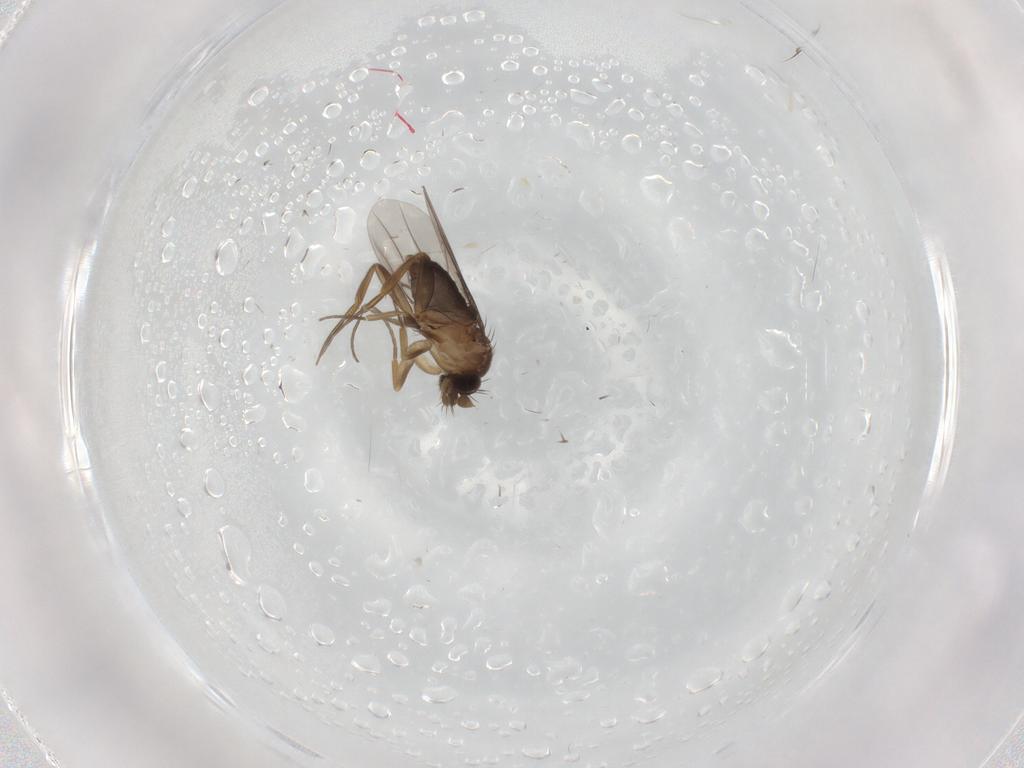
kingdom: Animalia
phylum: Arthropoda
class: Insecta
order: Diptera
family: Phoridae
